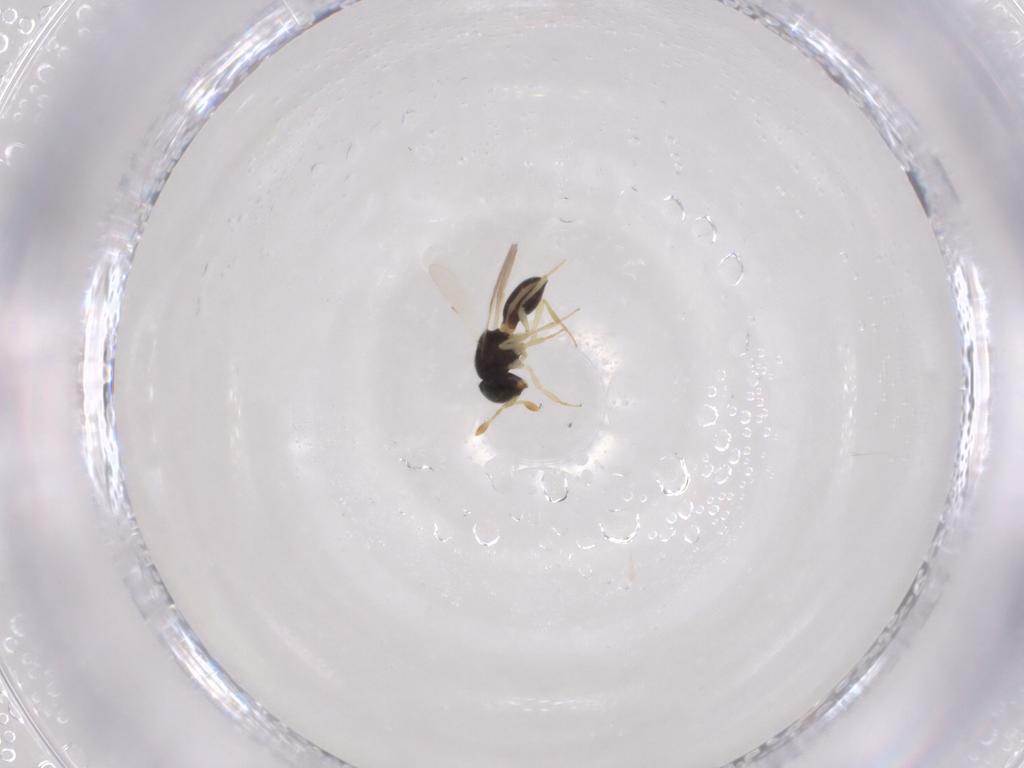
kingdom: Animalia
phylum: Arthropoda
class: Insecta
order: Hymenoptera
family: Scelionidae
